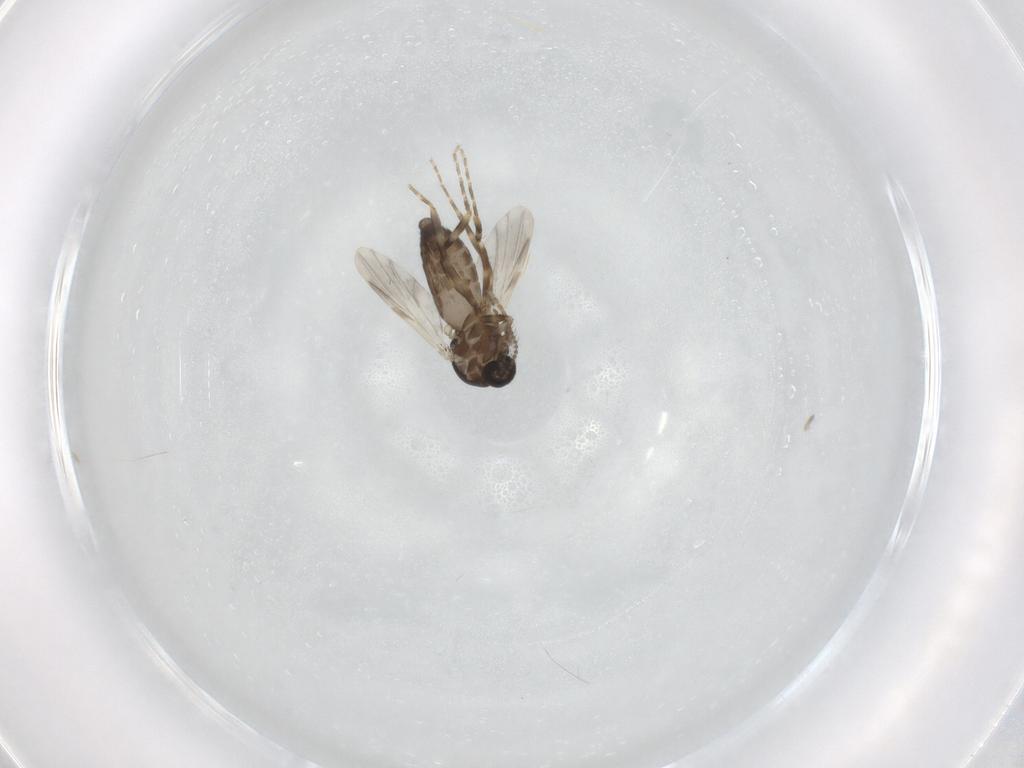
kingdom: Animalia
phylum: Arthropoda
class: Insecta
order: Diptera
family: Ceratopogonidae
